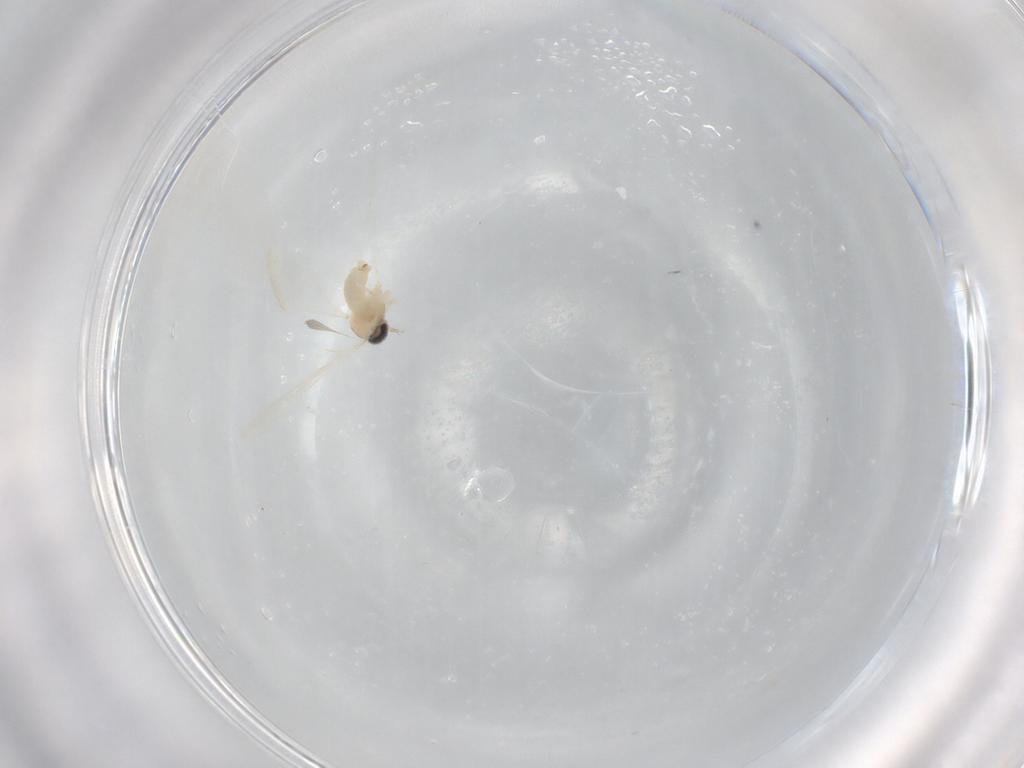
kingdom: Animalia
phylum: Arthropoda
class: Insecta
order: Diptera
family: Cecidomyiidae
